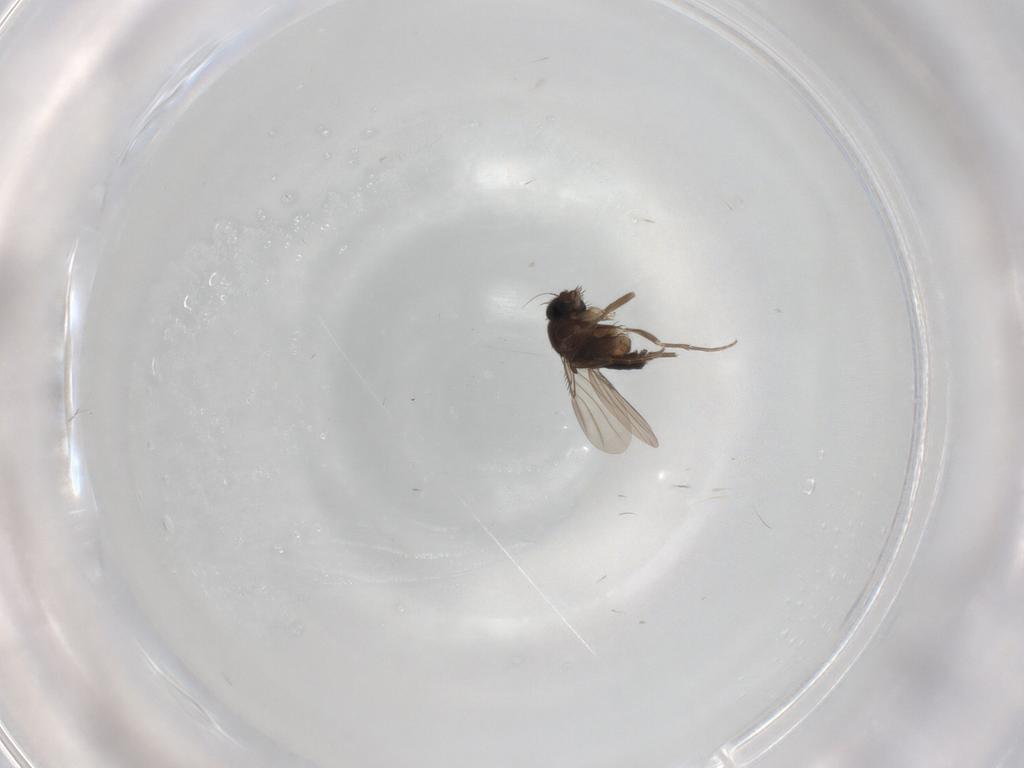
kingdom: Animalia
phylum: Arthropoda
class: Insecta
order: Diptera
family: Phoridae
